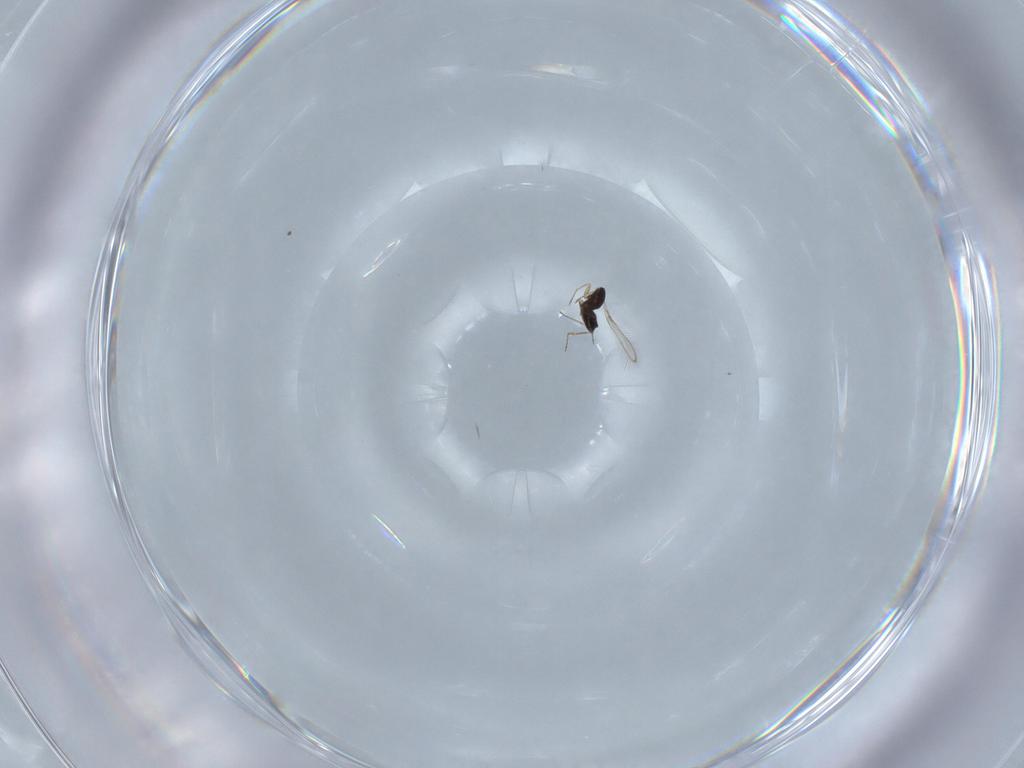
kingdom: Animalia
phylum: Arthropoda
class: Insecta
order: Hymenoptera
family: Mymaridae
